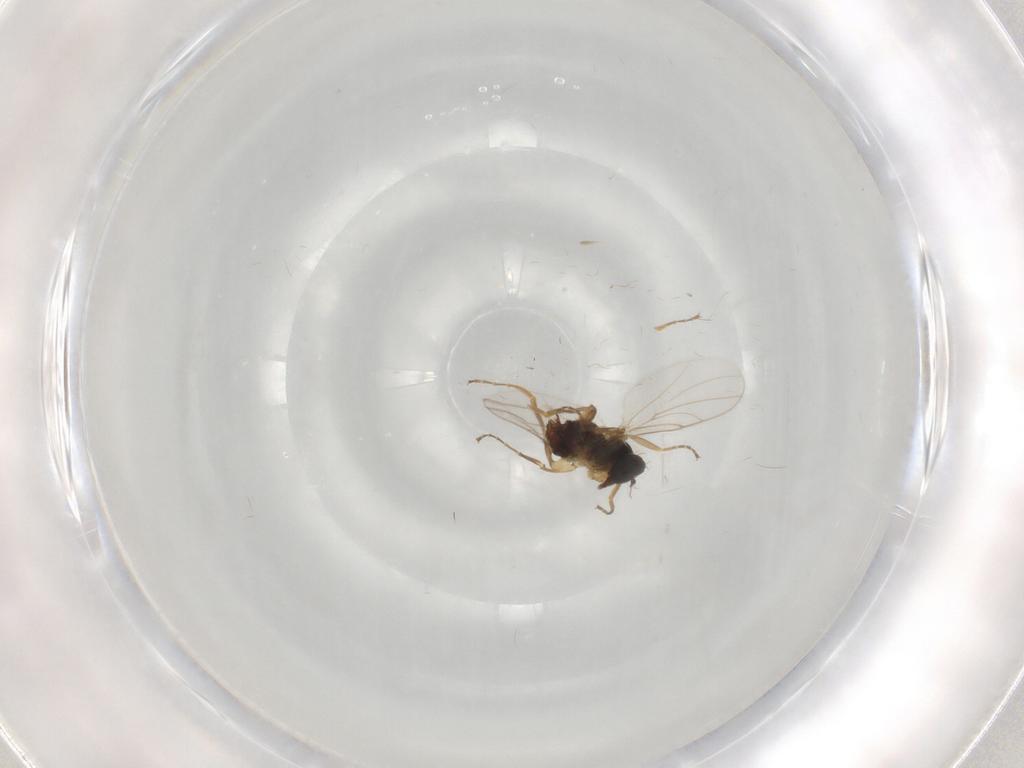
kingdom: Animalia
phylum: Arthropoda
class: Insecta
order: Diptera
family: Hybotidae
